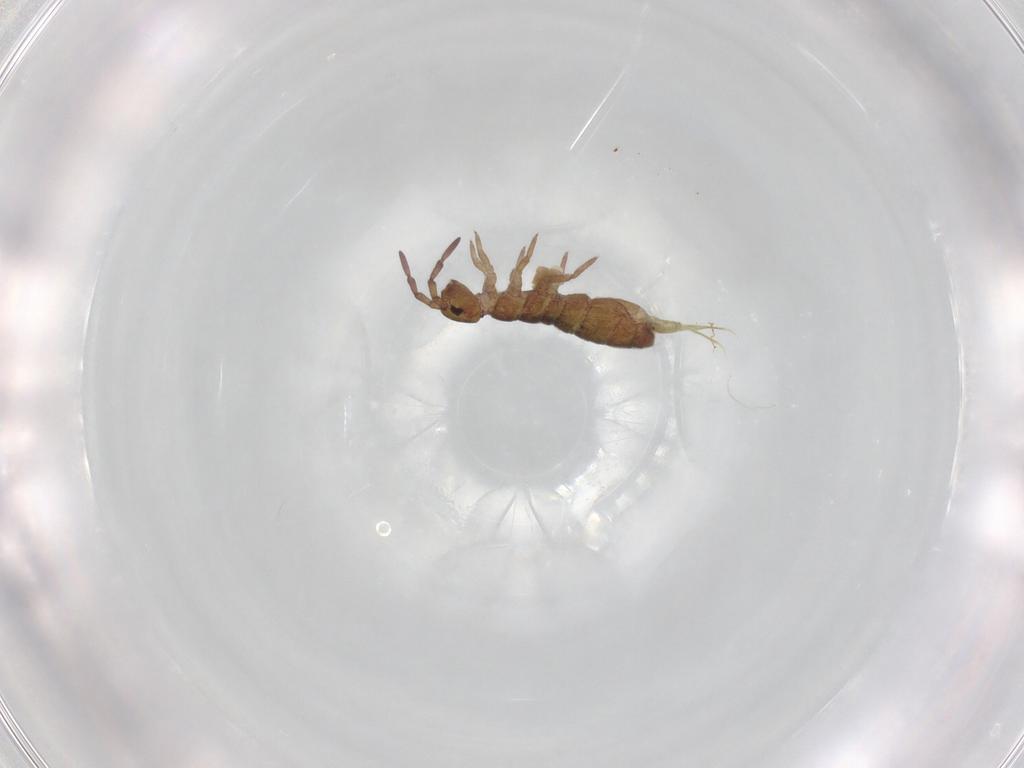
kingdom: Animalia
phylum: Arthropoda
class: Collembola
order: Entomobryomorpha
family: Isotomidae
